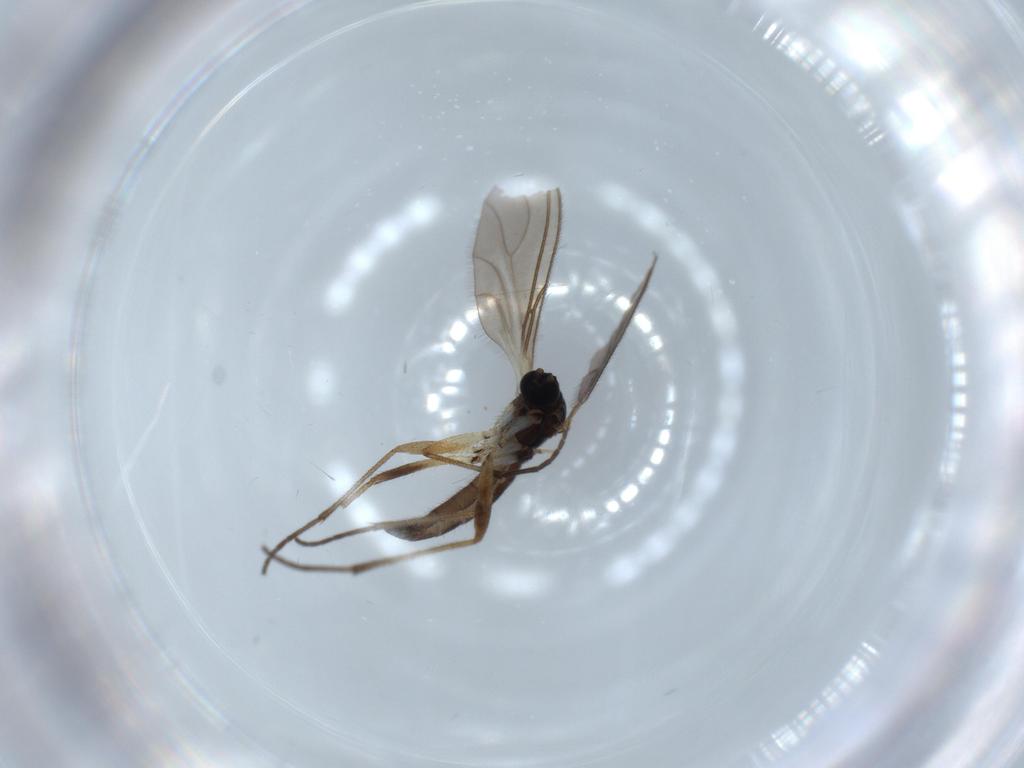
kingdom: Animalia
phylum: Arthropoda
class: Insecta
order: Diptera
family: Sciaridae
